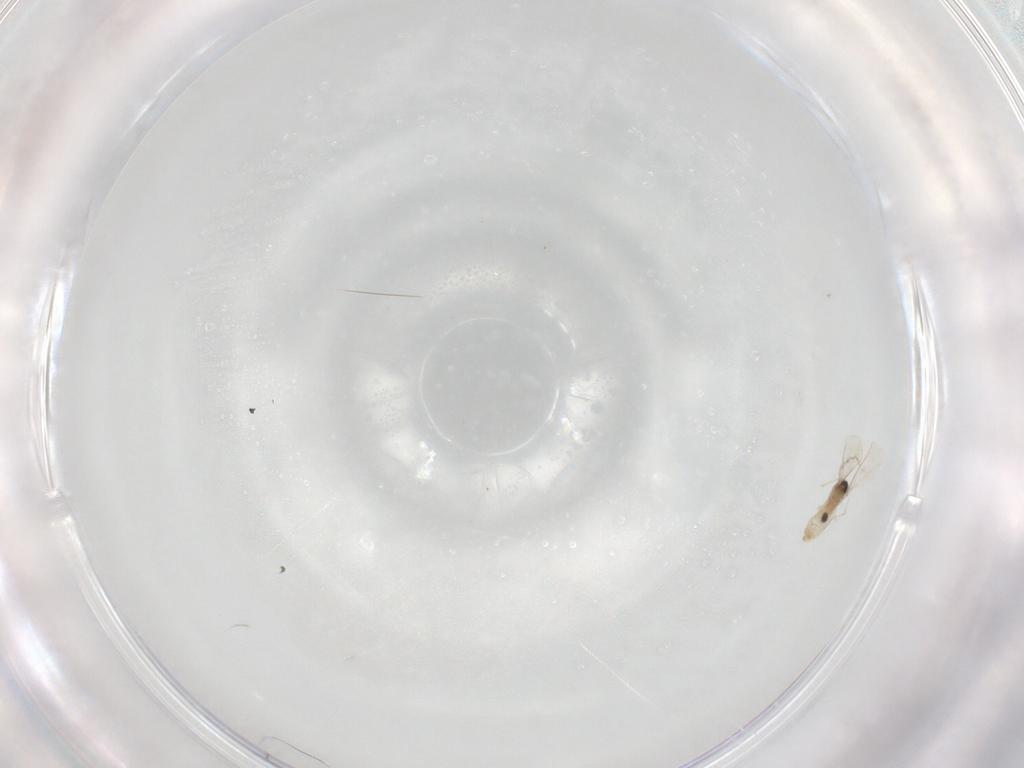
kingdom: Animalia
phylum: Arthropoda
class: Insecta
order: Diptera
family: Cecidomyiidae
